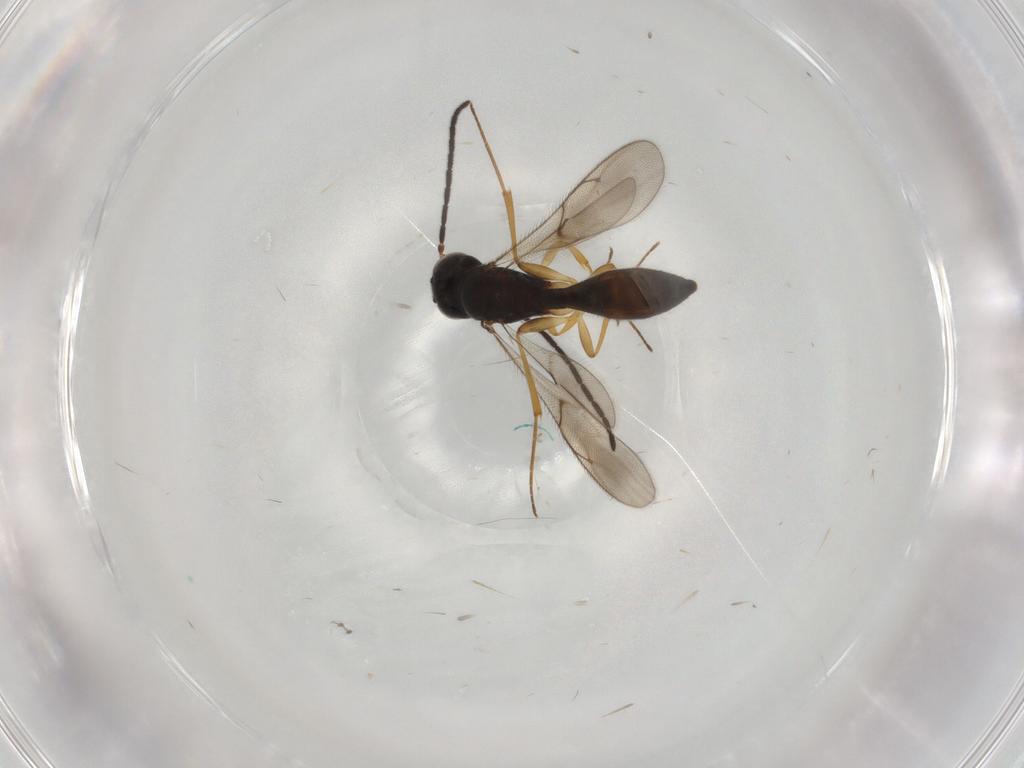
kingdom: Animalia
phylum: Arthropoda
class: Insecta
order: Hymenoptera
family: Formicidae
